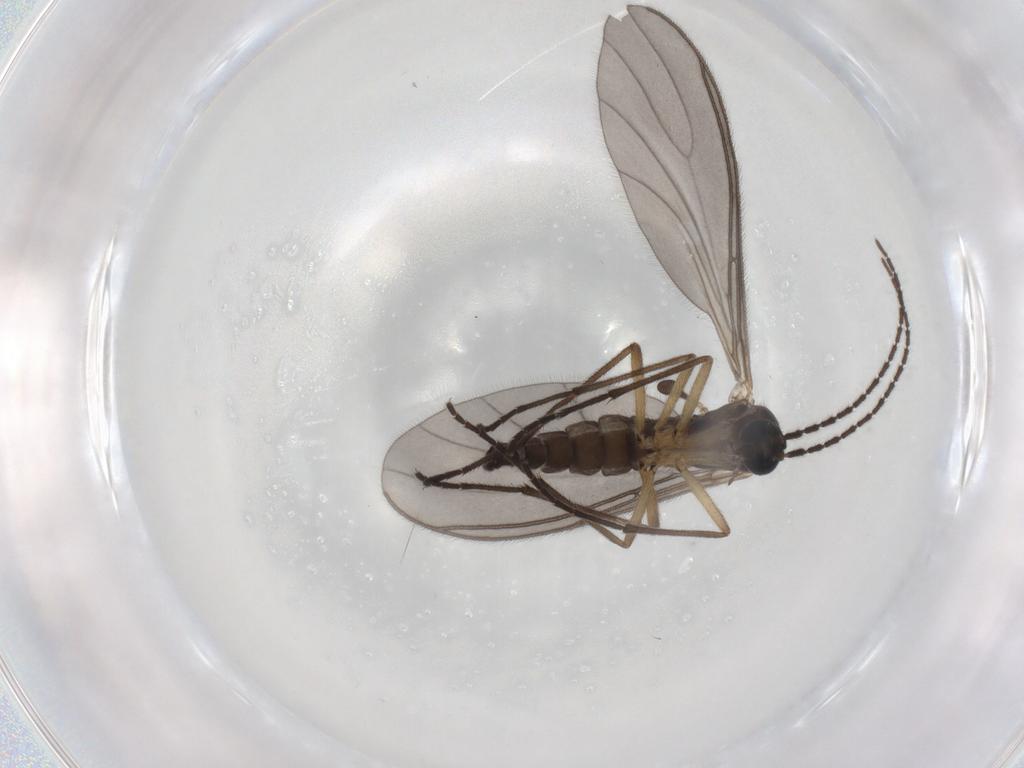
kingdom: Animalia
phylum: Arthropoda
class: Insecta
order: Diptera
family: Sciaridae
